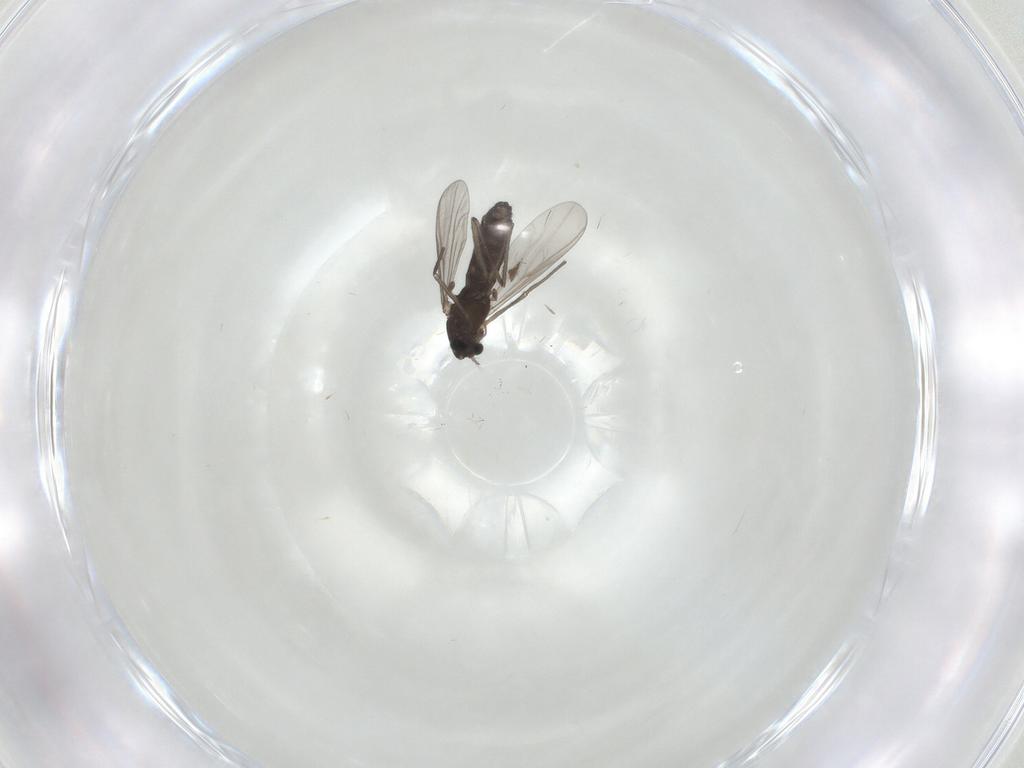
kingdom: Animalia
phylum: Arthropoda
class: Insecta
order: Diptera
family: Chironomidae
